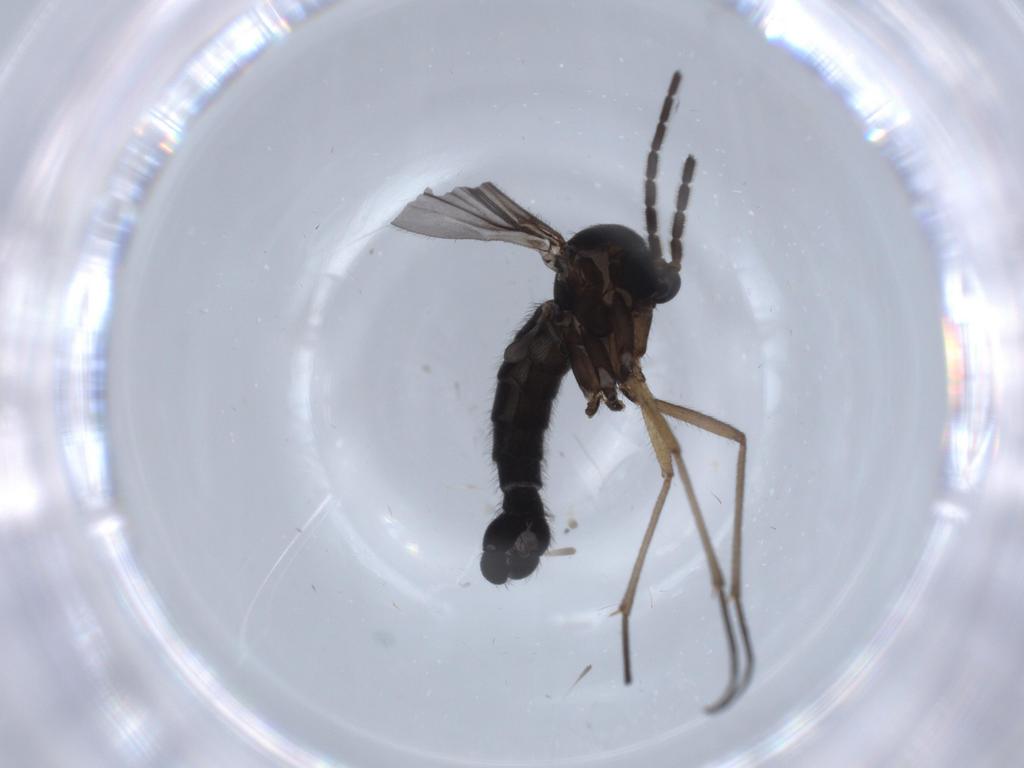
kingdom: Animalia
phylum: Arthropoda
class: Insecta
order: Diptera
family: Sciaridae
